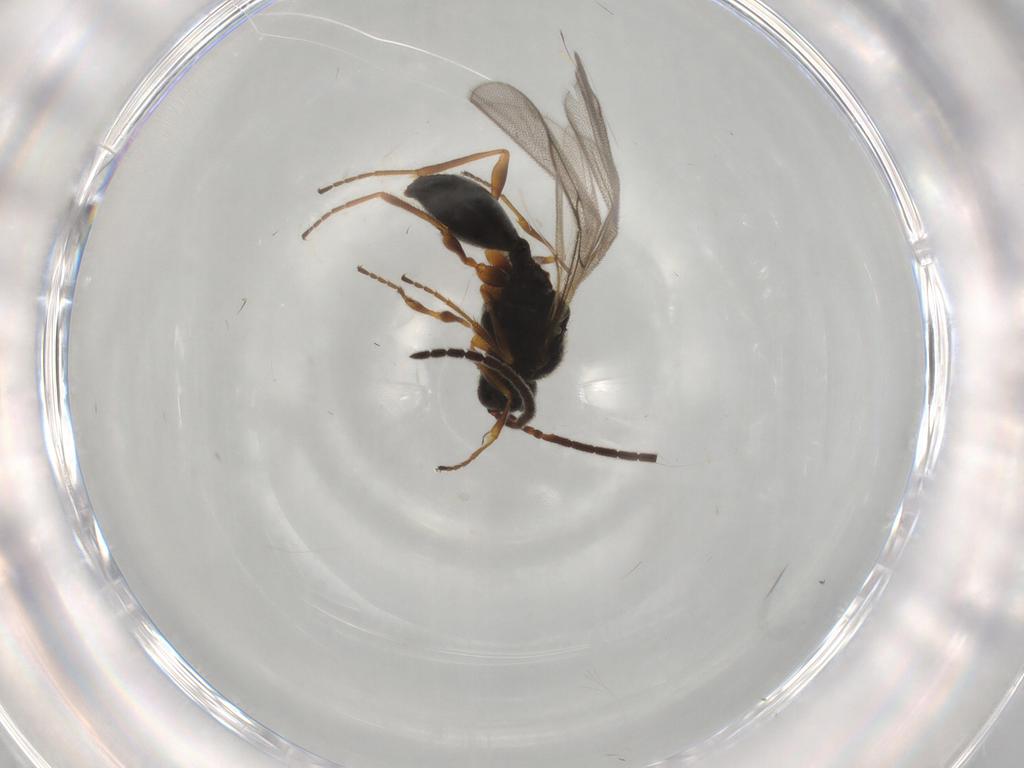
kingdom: Animalia
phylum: Arthropoda
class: Insecta
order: Hymenoptera
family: Diapriidae
